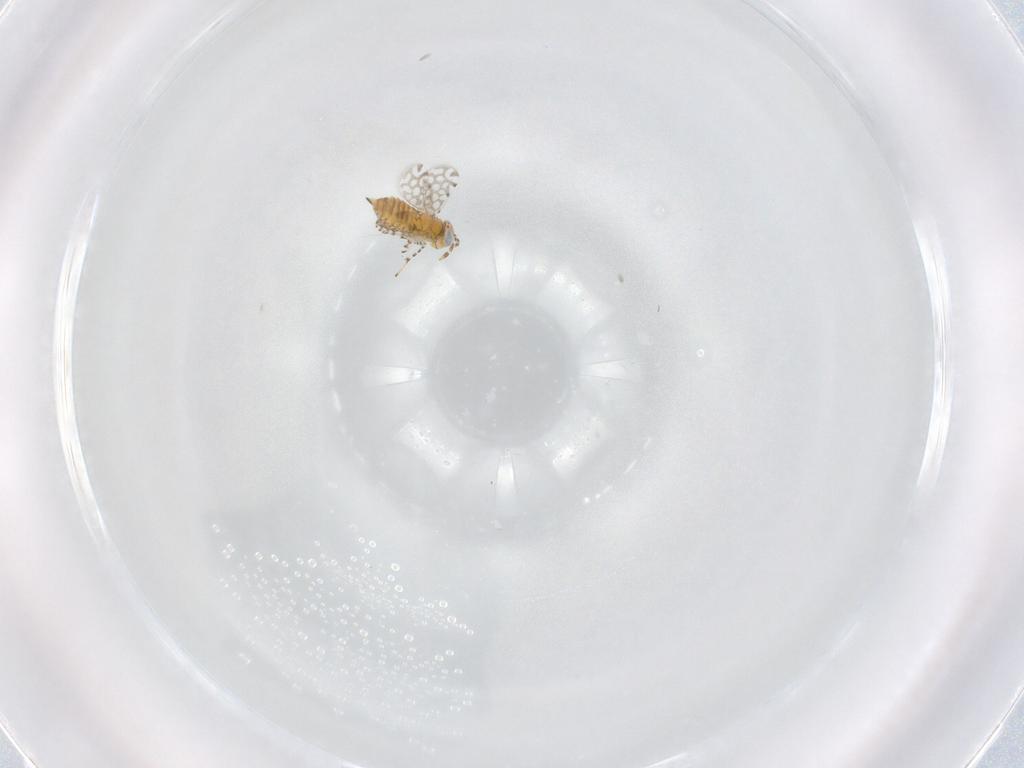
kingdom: Animalia
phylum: Arthropoda
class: Insecta
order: Hymenoptera
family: Aphelinidae
